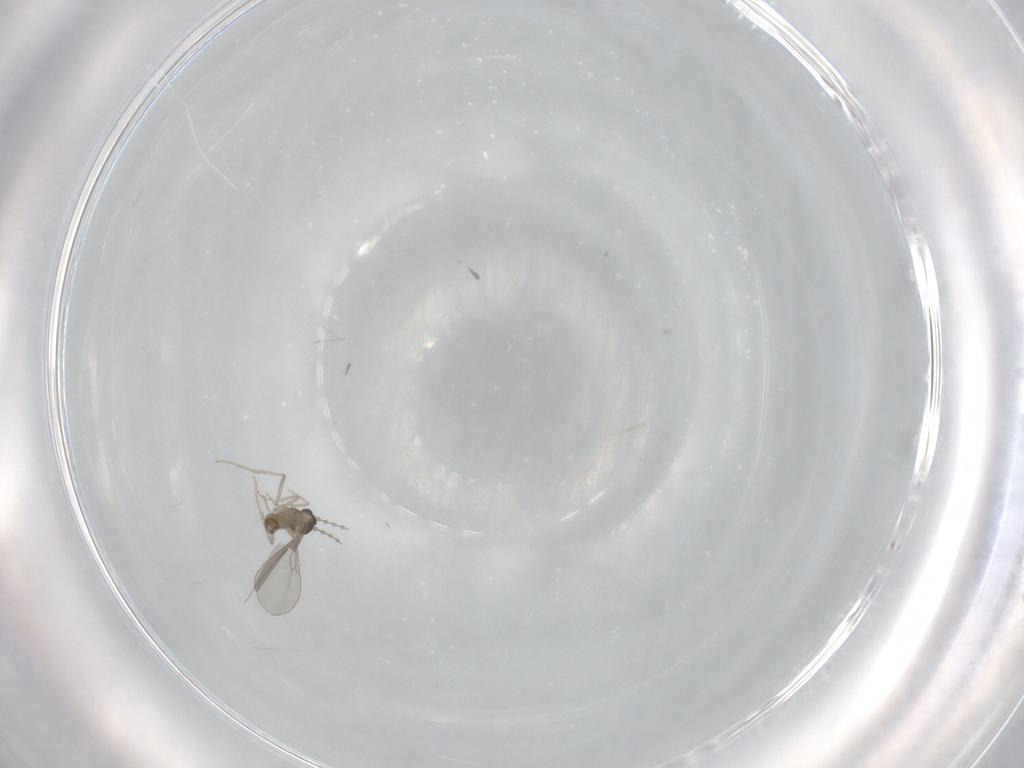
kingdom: Animalia
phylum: Arthropoda
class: Insecta
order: Diptera
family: Cecidomyiidae
